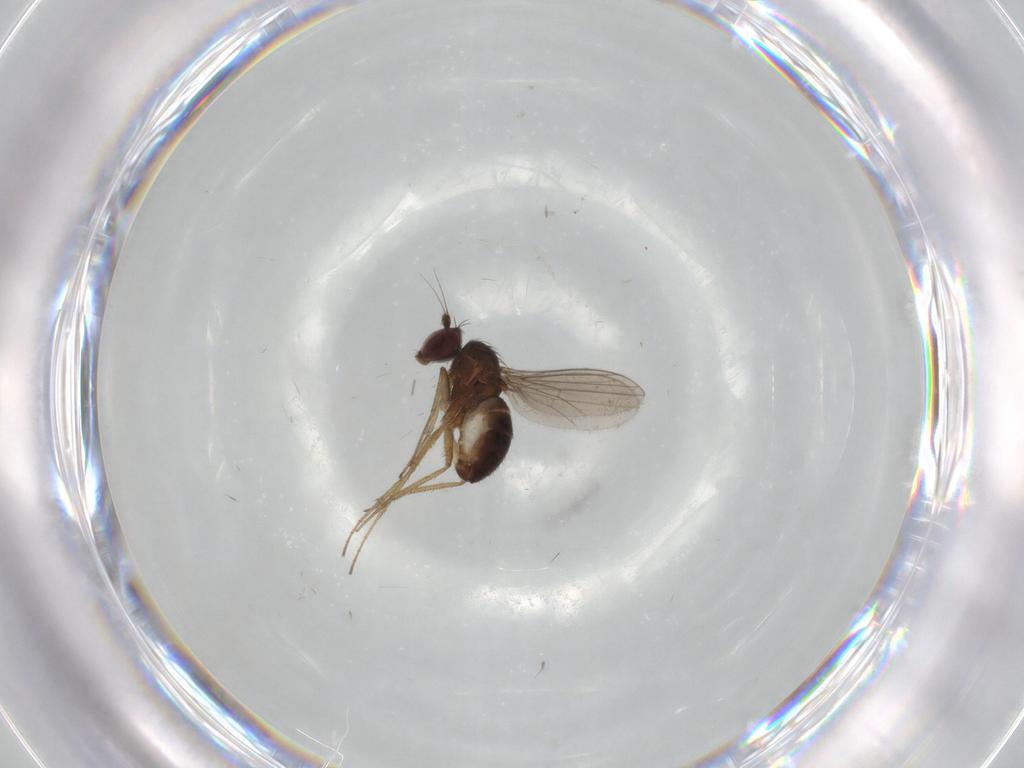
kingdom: Animalia
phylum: Arthropoda
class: Insecta
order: Diptera
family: Dolichopodidae
